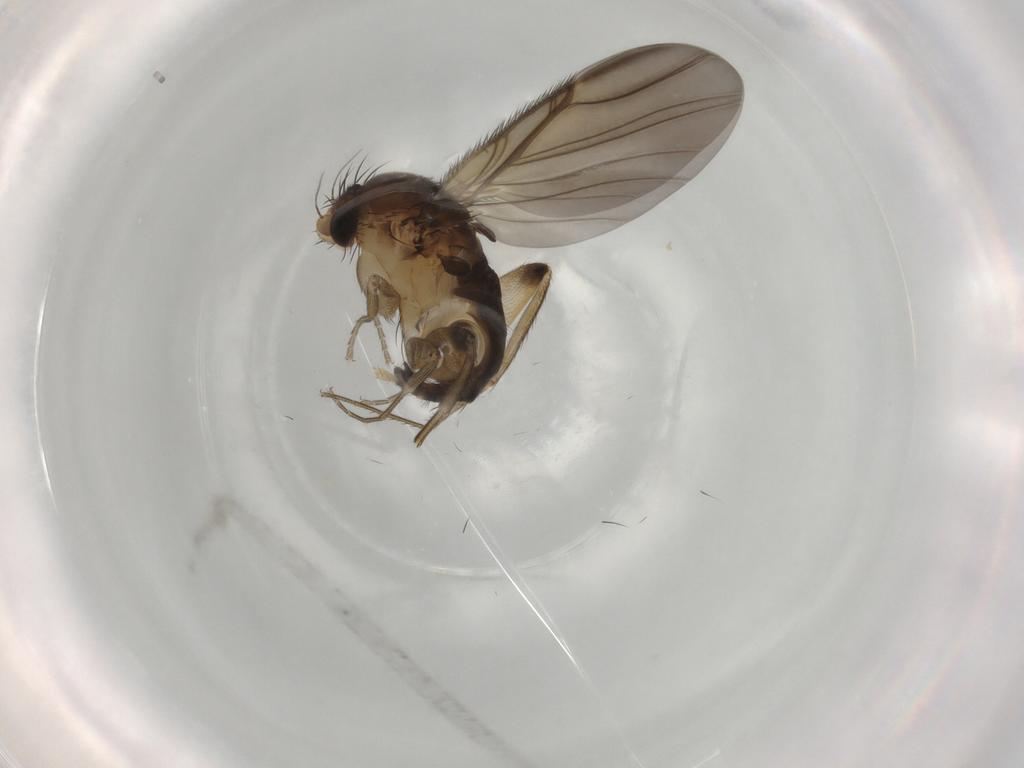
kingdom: Animalia
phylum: Arthropoda
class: Insecta
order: Diptera
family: Phoridae
